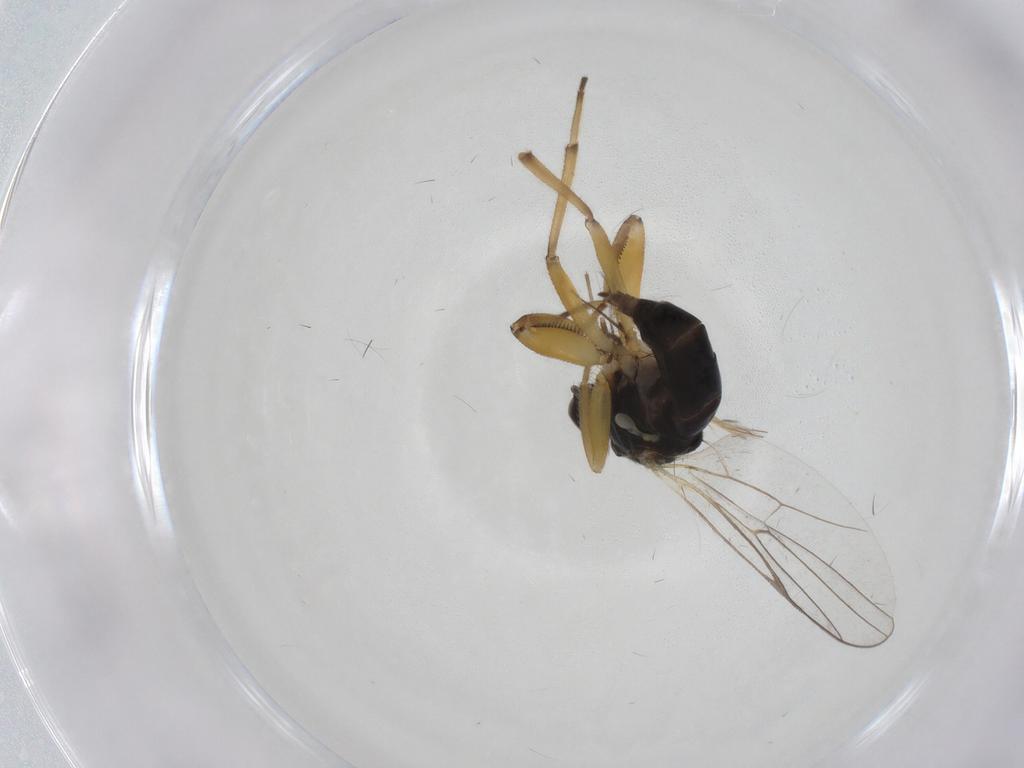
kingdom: Animalia
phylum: Arthropoda
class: Insecta
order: Diptera
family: Hybotidae
